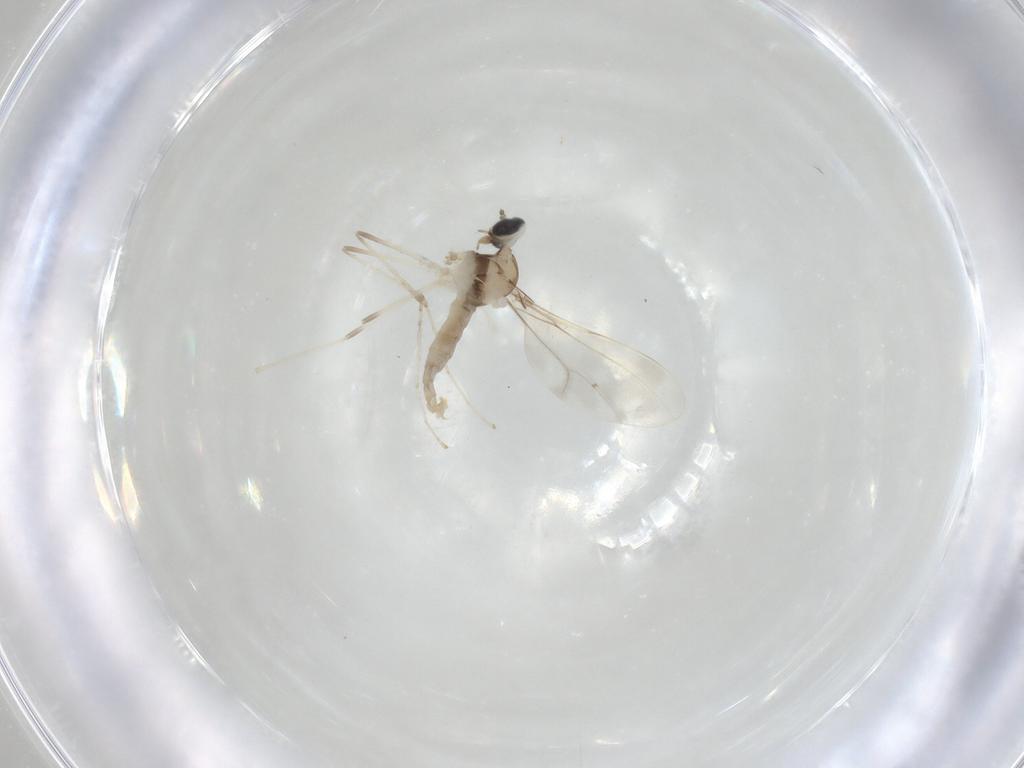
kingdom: Animalia
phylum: Arthropoda
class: Insecta
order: Diptera
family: Cecidomyiidae
